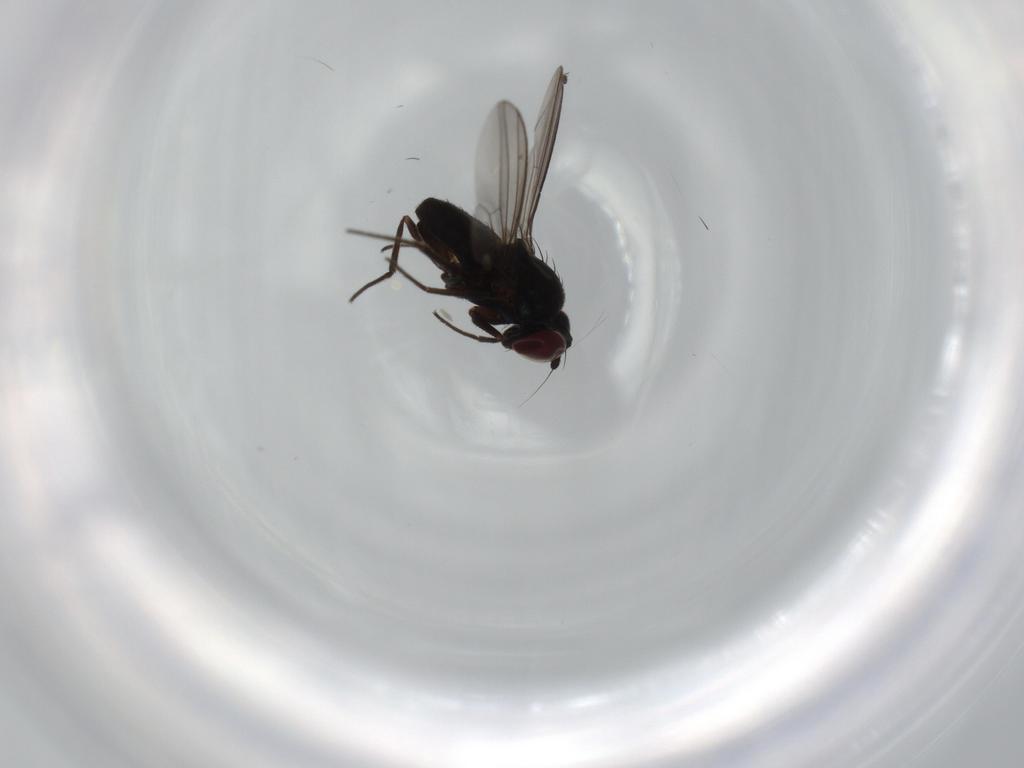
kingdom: Animalia
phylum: Arthropoda
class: Insecta
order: Diptera
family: Dolichopodidae
